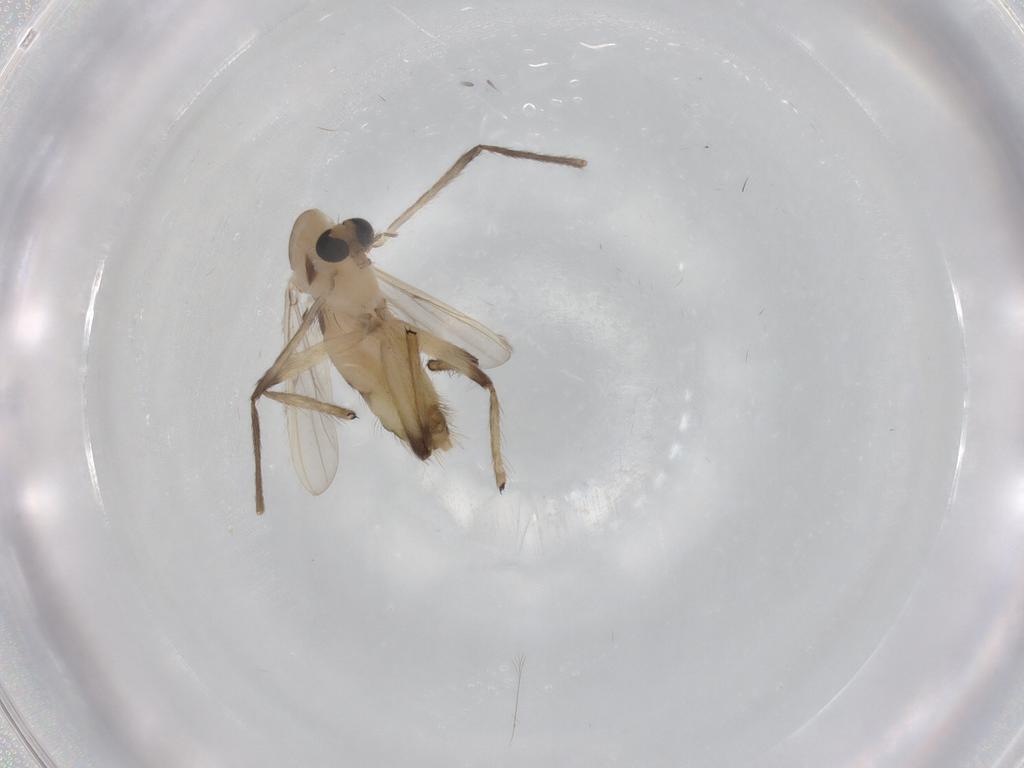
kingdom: Animalia
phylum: Arthropoda
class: Insecta
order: Diptera
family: Chironomidae
